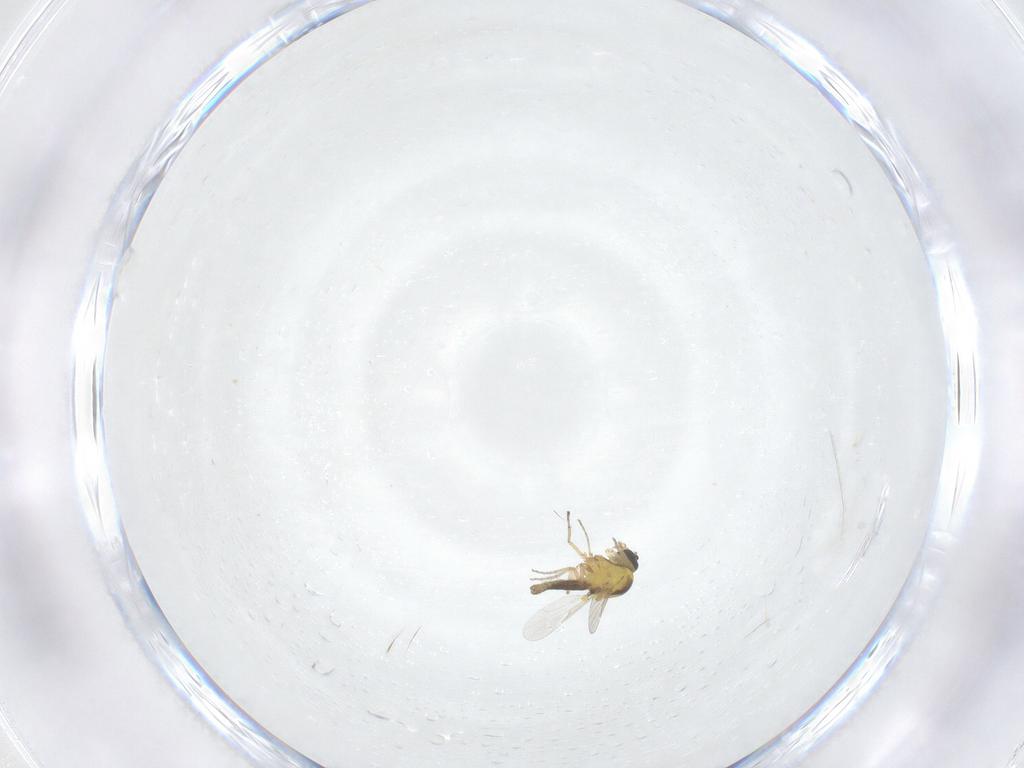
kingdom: Animalia
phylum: Arthropoda
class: Insecta
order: Diptera
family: Ceratopogonidae
